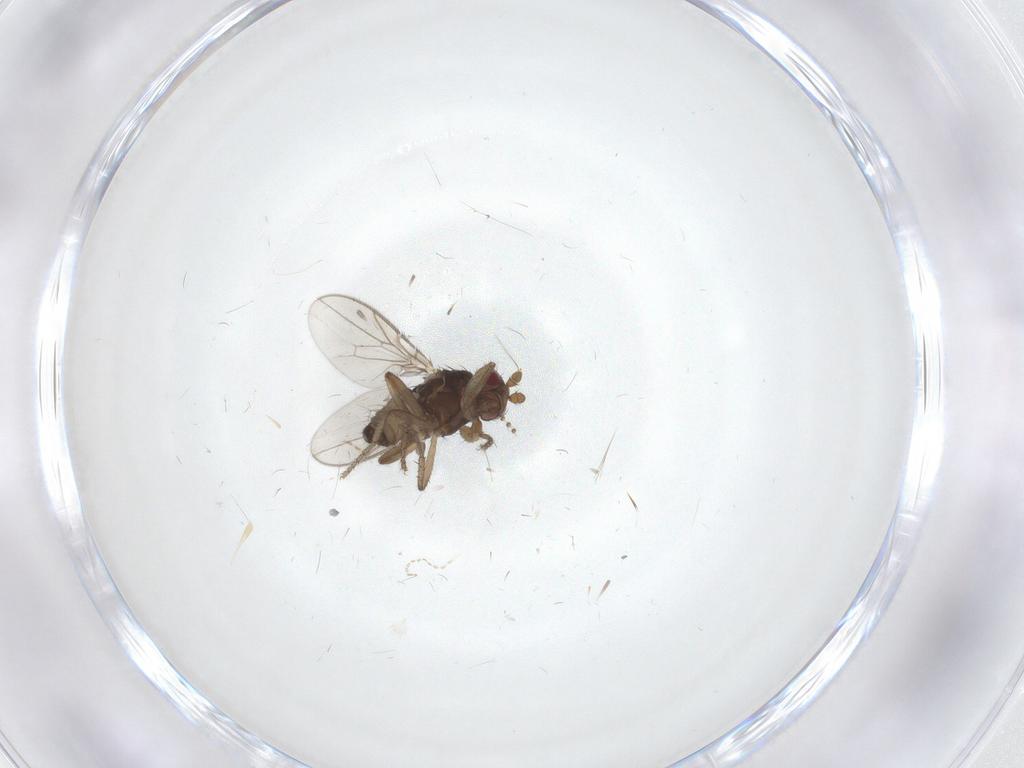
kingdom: Animalia
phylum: Arthropoda
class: Insecta
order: Diptera
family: Sphaeroceridae
